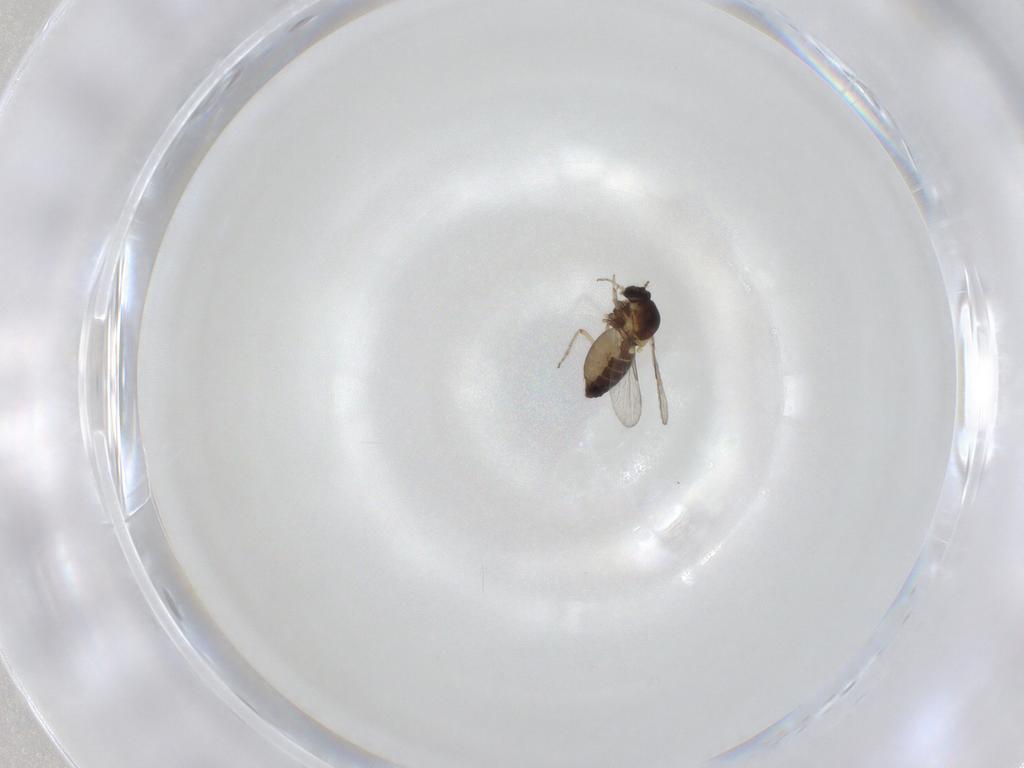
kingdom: Animalia
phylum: Arthropoda
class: Insecta
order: Diptera
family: Ceratopogonidae
